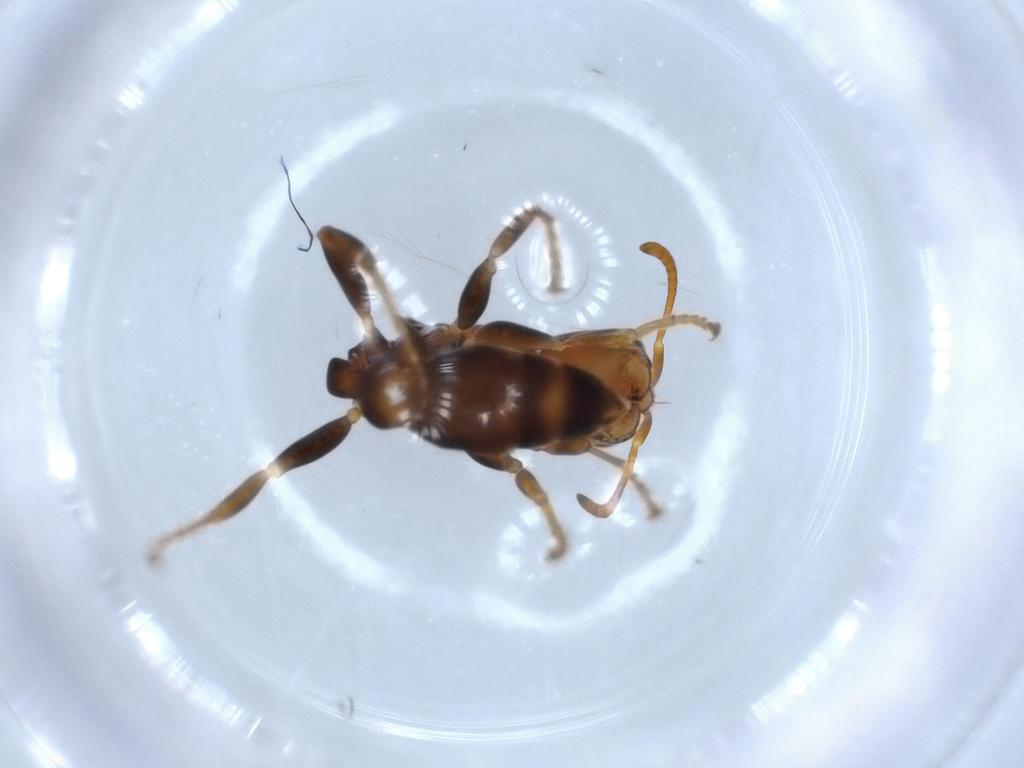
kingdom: Animalia
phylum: Arthropoda
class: Insecta
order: Hymenoptera
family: Formicidae
